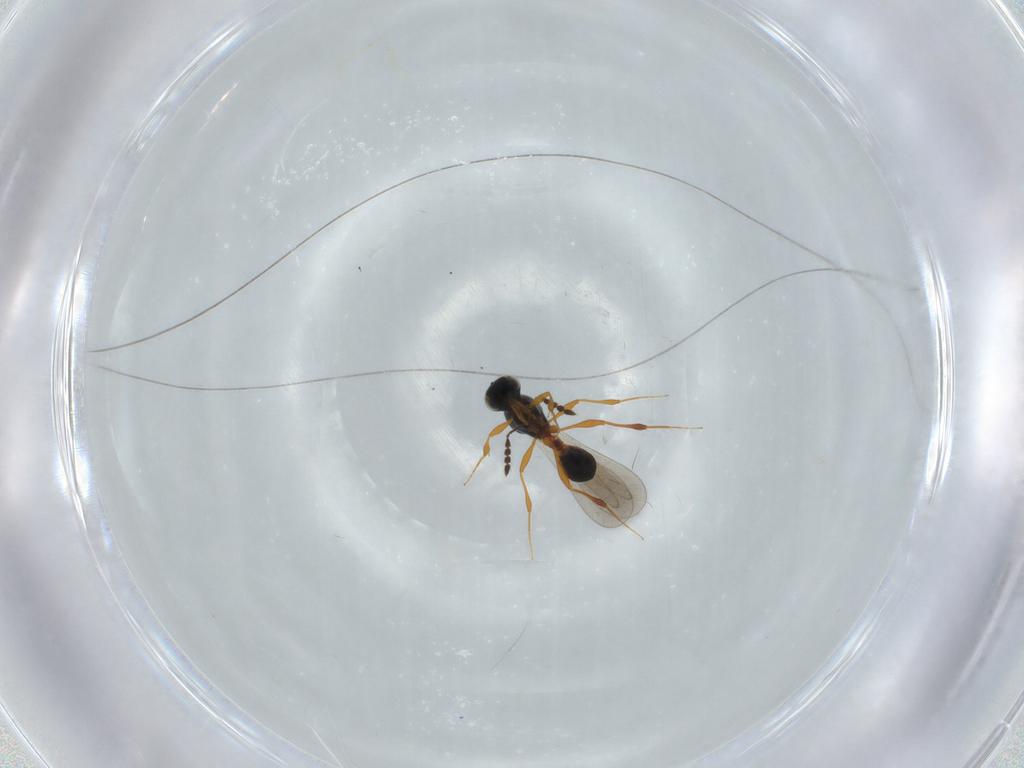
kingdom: Animalia
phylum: Arthropoda
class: Insecta
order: Hymenoptera
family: Platygastridae
